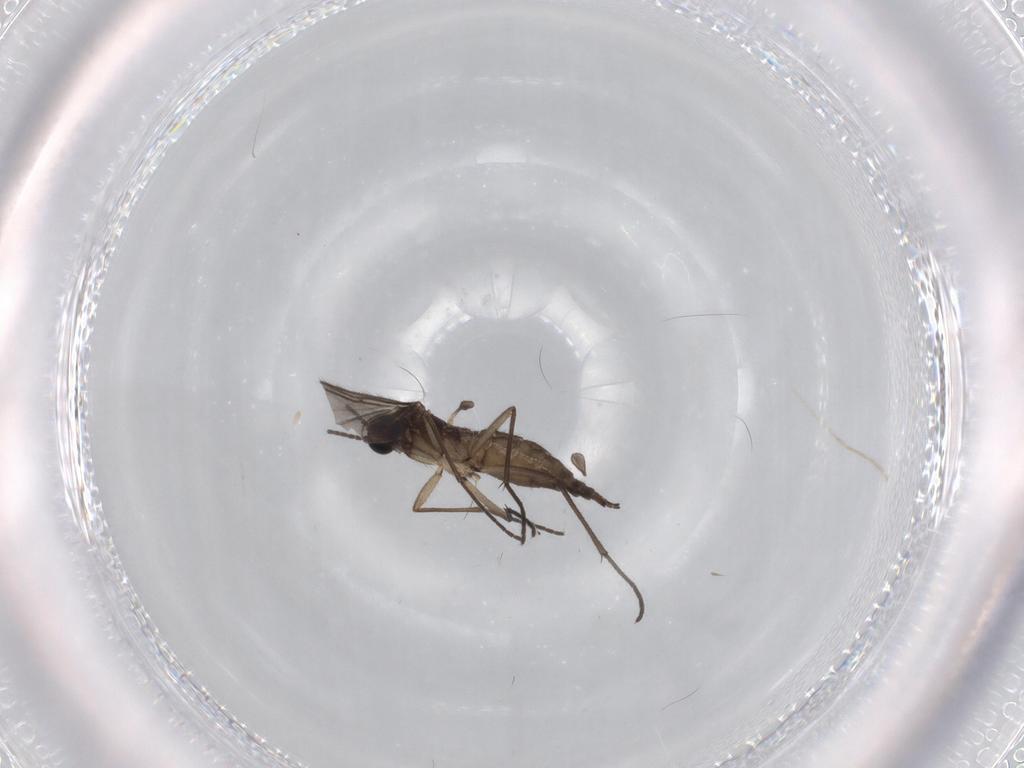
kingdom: Animalia
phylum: Arthropoda
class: Insecta
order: Diptera
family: Sciaridae
